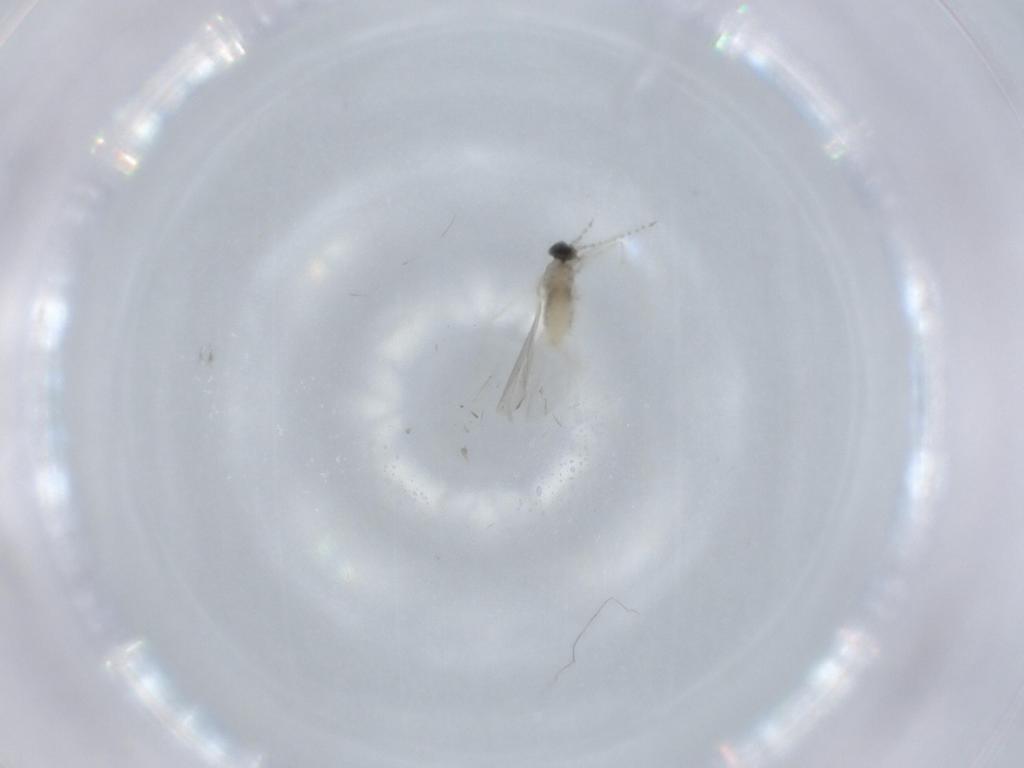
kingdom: Animalia
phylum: Arthropoda
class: Insecta
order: Diptera
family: Cecidomyiidae
